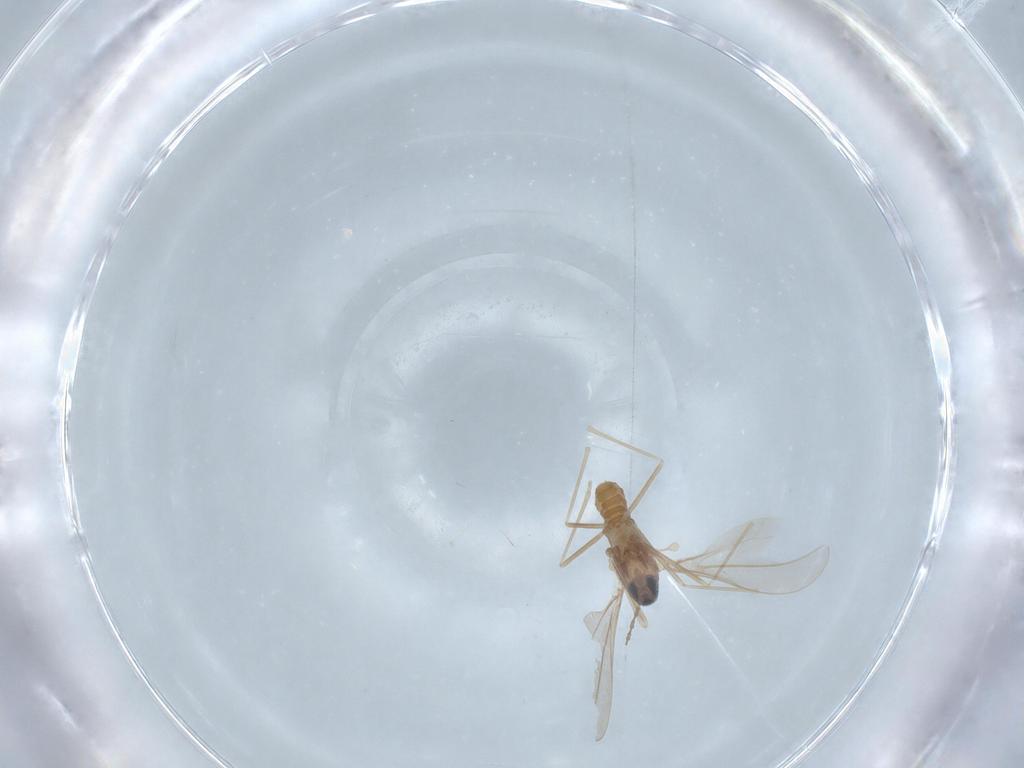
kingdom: Animalia
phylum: Arthropoda
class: Insecta
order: Diptera
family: Cecidomyiidae
